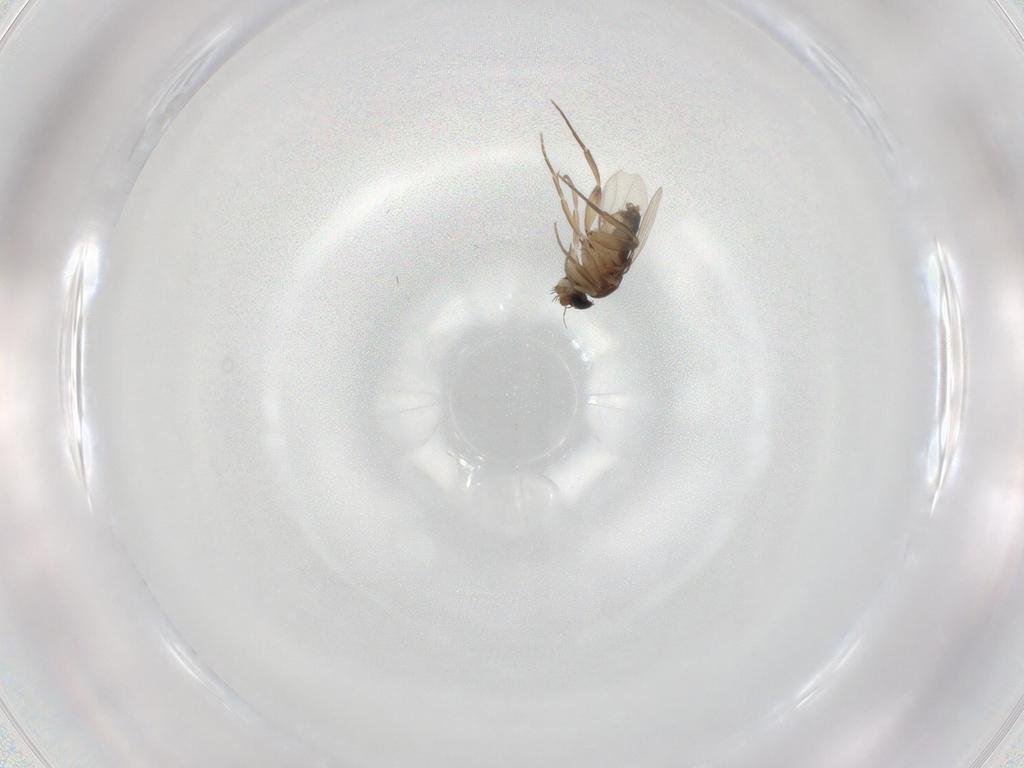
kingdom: Animalia
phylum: Arthropoda
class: Insecta
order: Diptera
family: Phoridae
